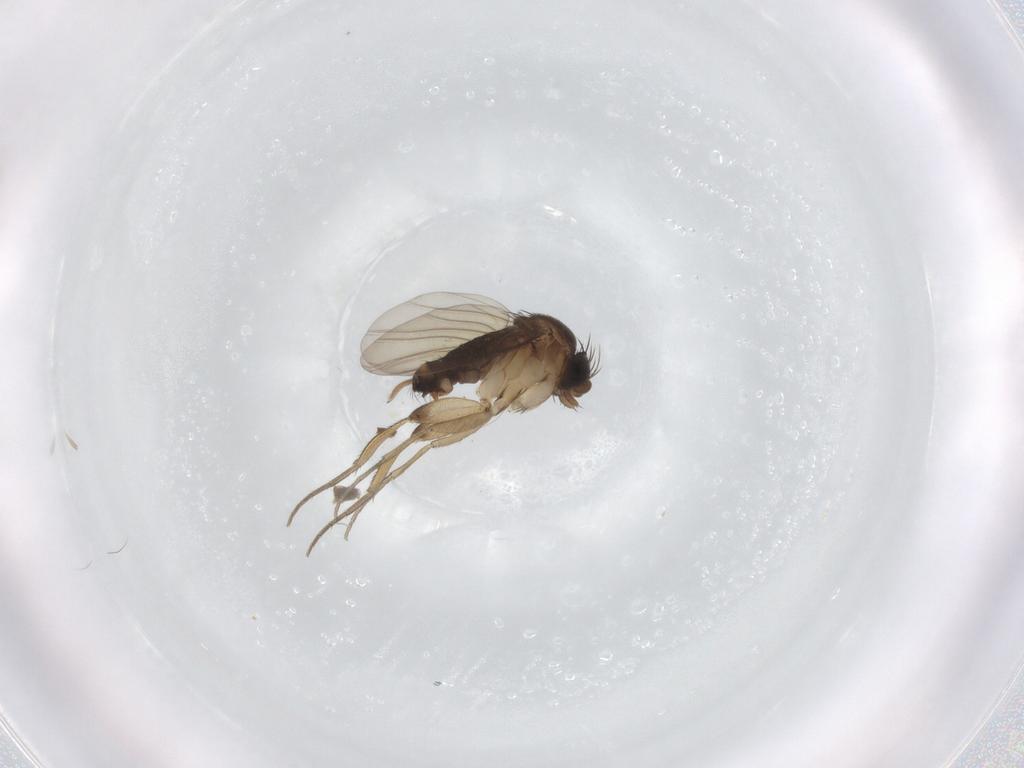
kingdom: Animalia
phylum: Arthropoda
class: Insecta
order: Diptera
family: Phoridae
